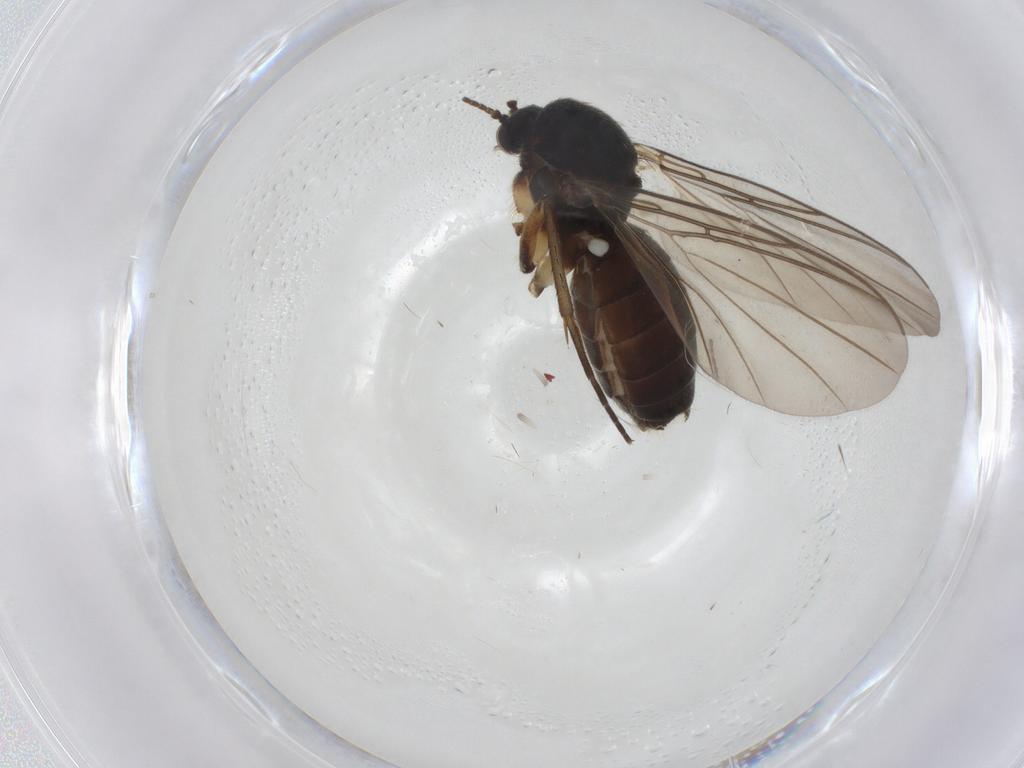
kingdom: Animalia
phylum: Arthropoda
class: Insecta
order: Diptera
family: Mycetophilidae
